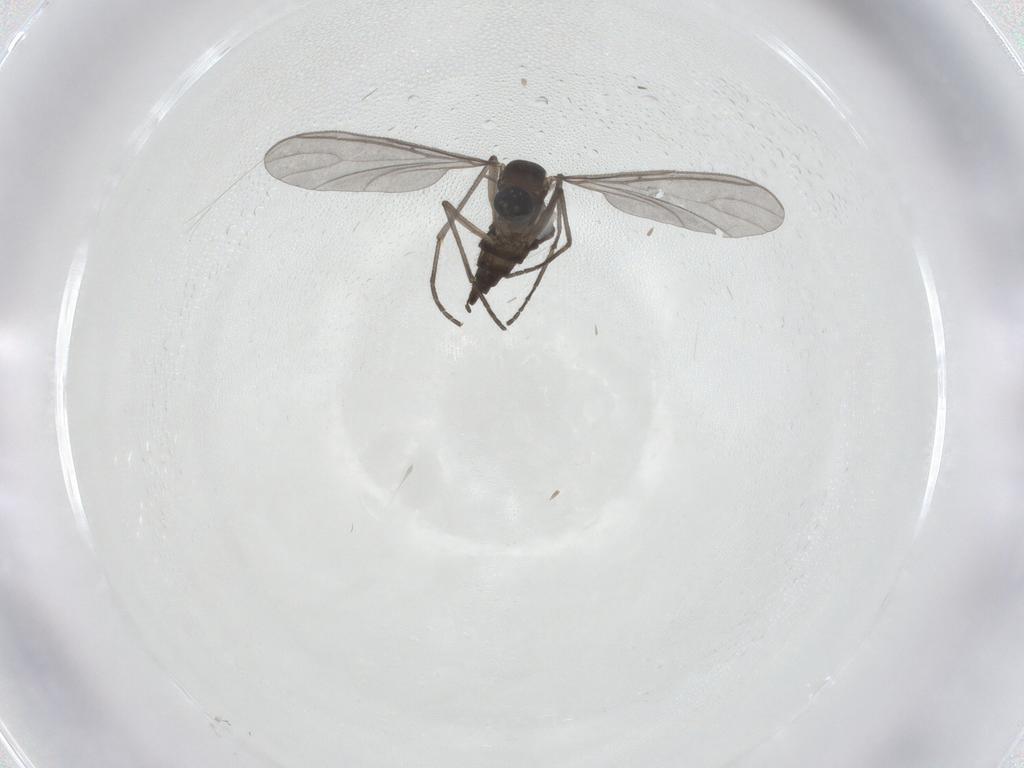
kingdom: Animalia
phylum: Arthropoda
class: Insecta
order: Diptera
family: Sciaridae
